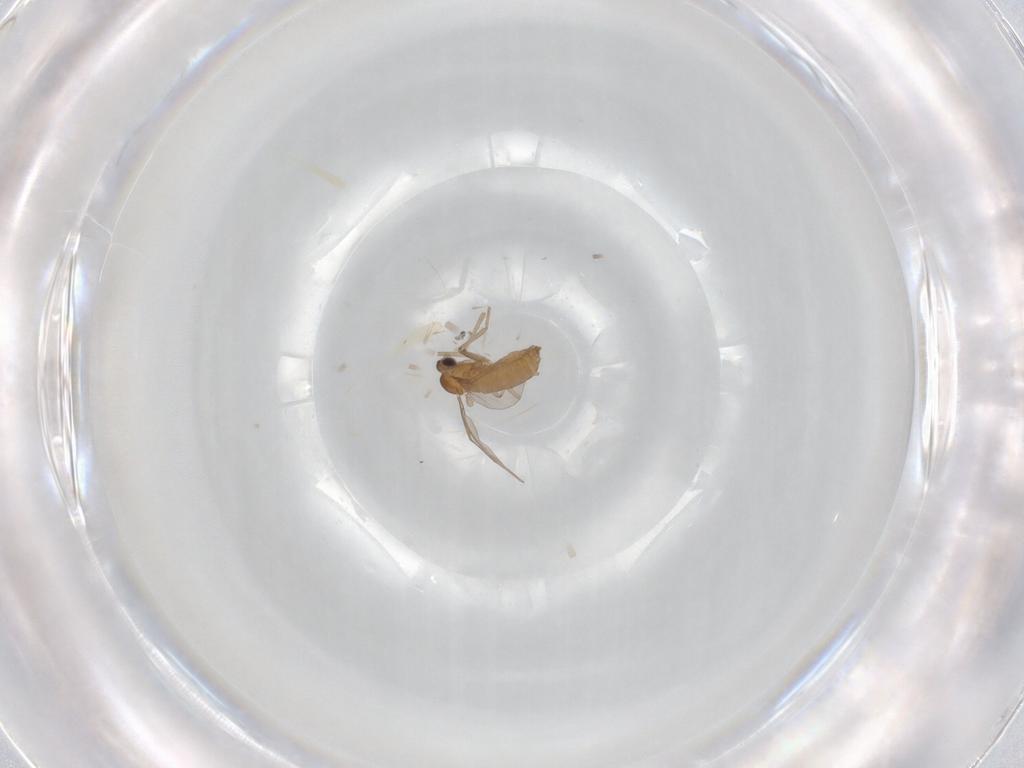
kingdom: Animalia
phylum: Arthropoda
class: Insecta
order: Diptera
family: Cecidomyiidae
